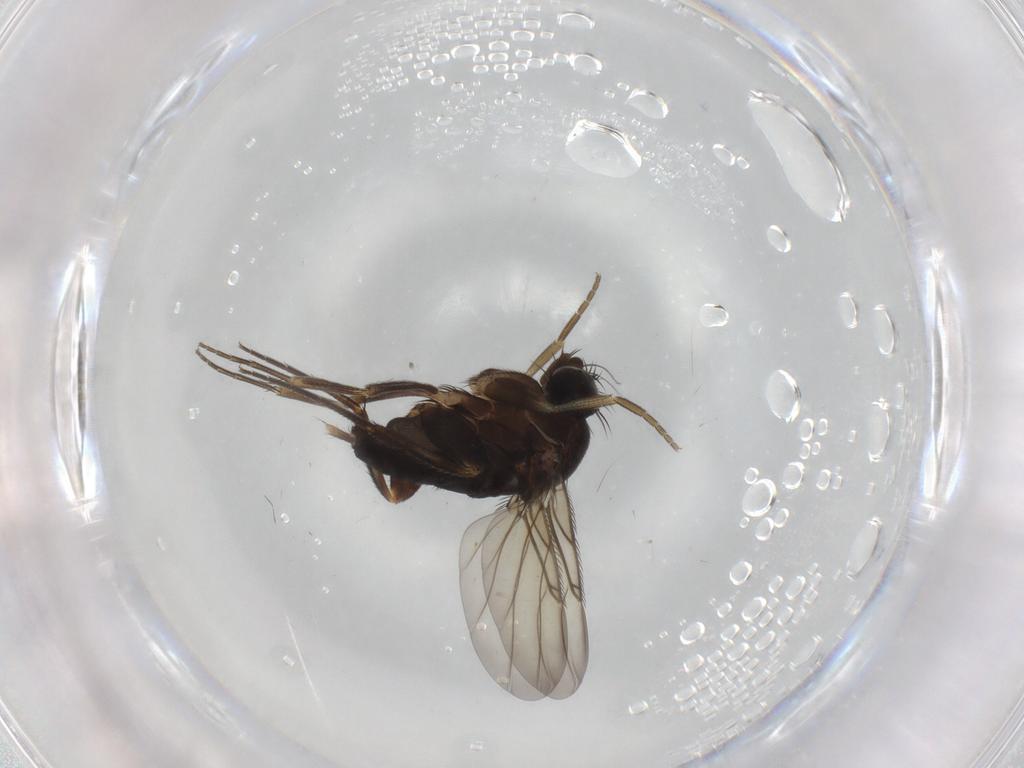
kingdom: Animalia
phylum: Arthropoda
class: Insecta
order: Diptera
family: Phoridae
